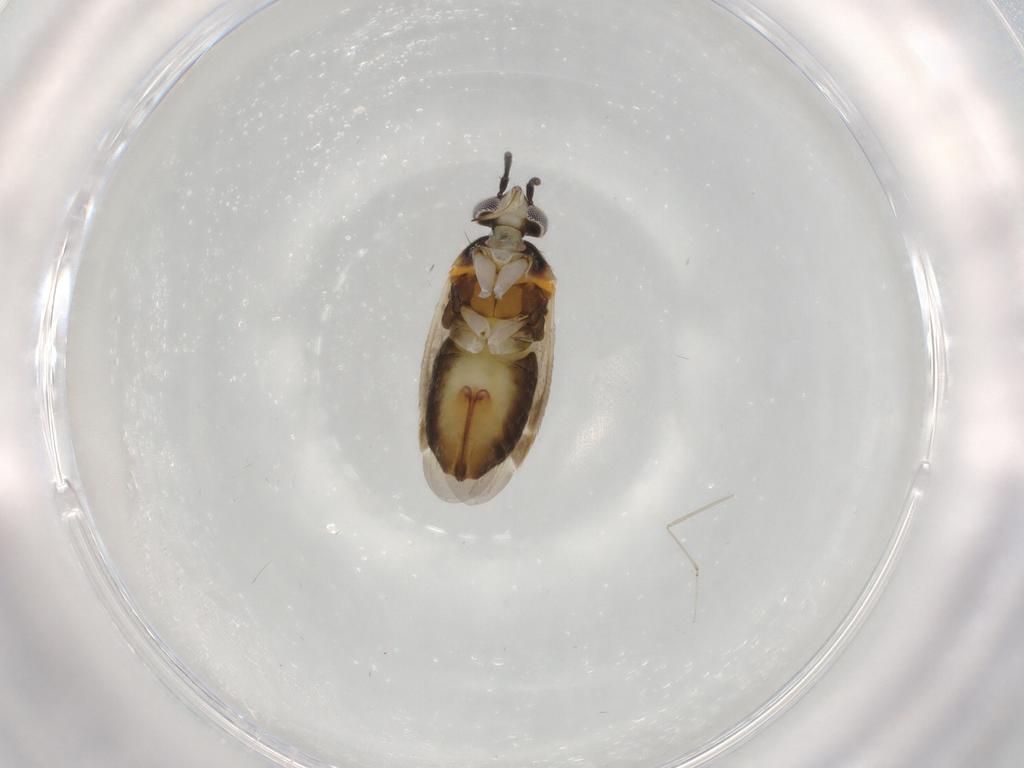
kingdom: Animalia
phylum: Arthropoda
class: Insecta
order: Hemiptera
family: Miridae
